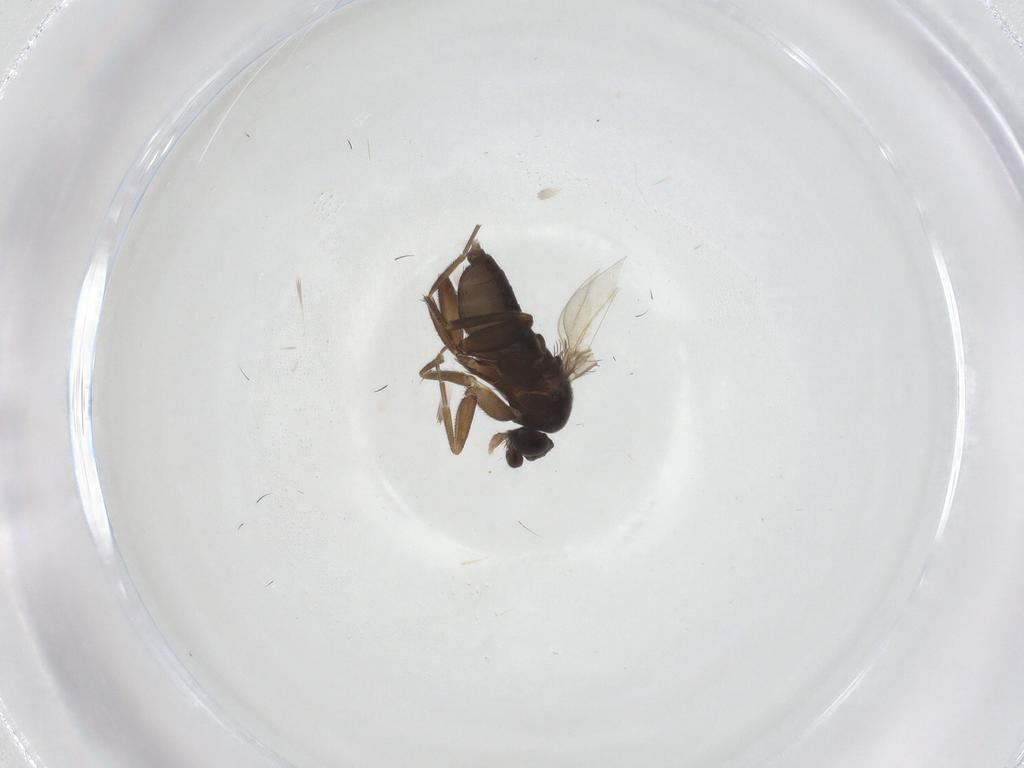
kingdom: Animalia
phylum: Arthropoda
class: Insecta
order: Diptera
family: Phoridae
